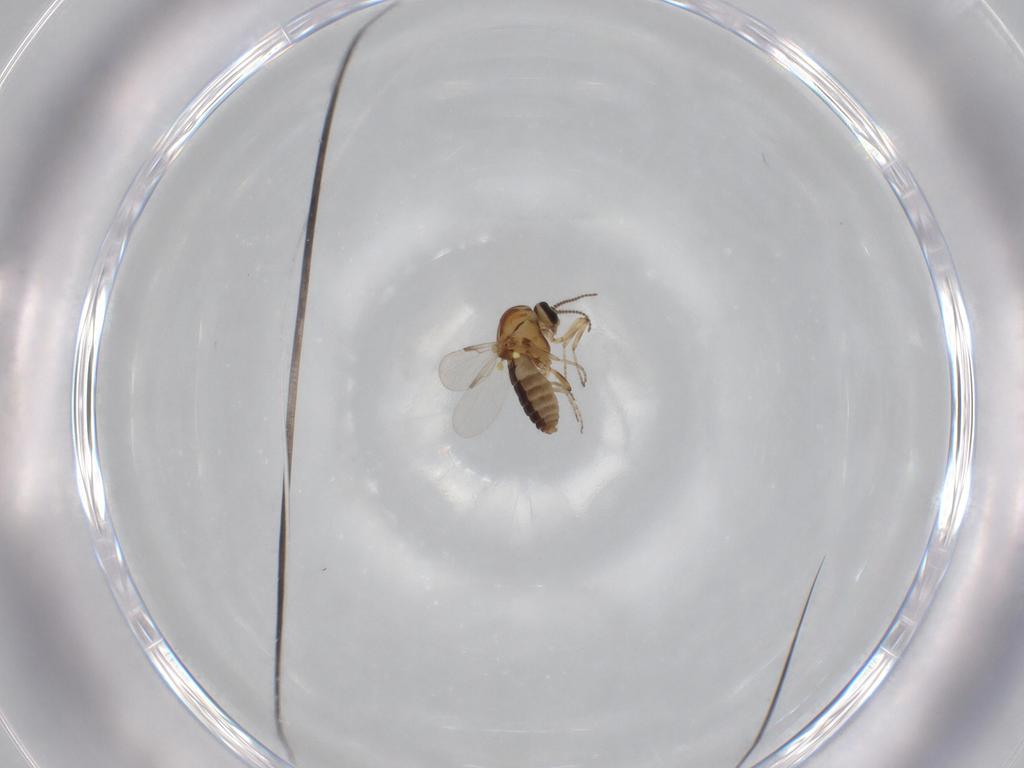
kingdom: Animalia
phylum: Arthropoda
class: Insecta
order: Diptera
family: Ceratopogonidae
